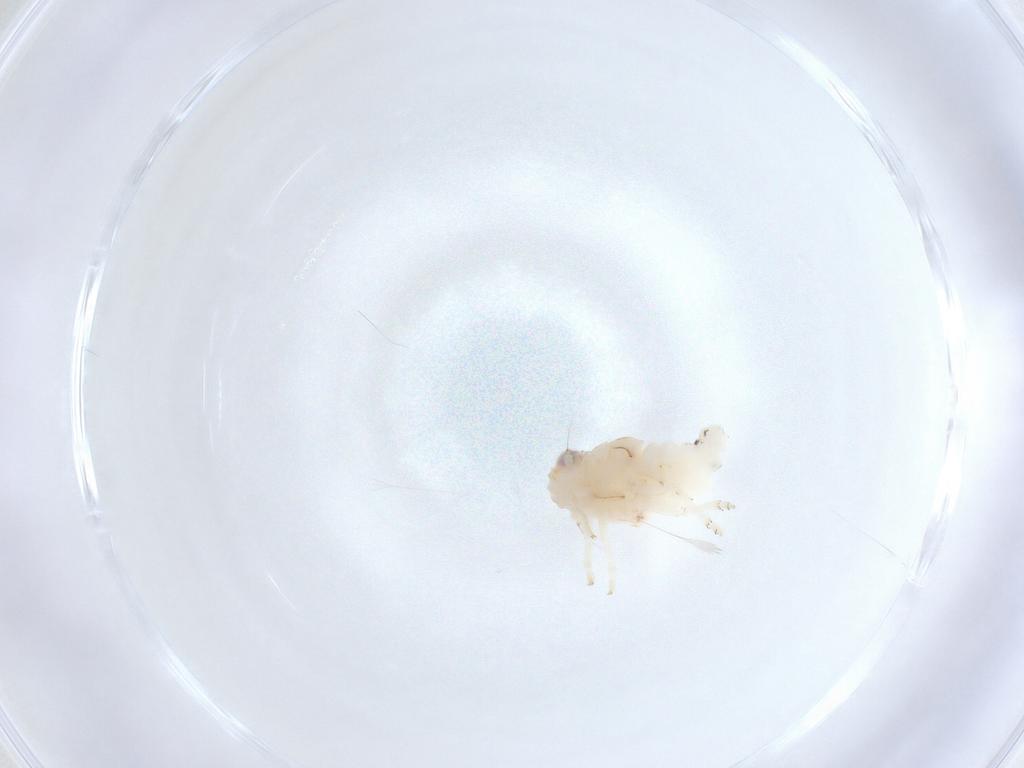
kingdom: Animalia
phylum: Arthropoda
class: Insecta
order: Hemiptera
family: Nogodinidae
